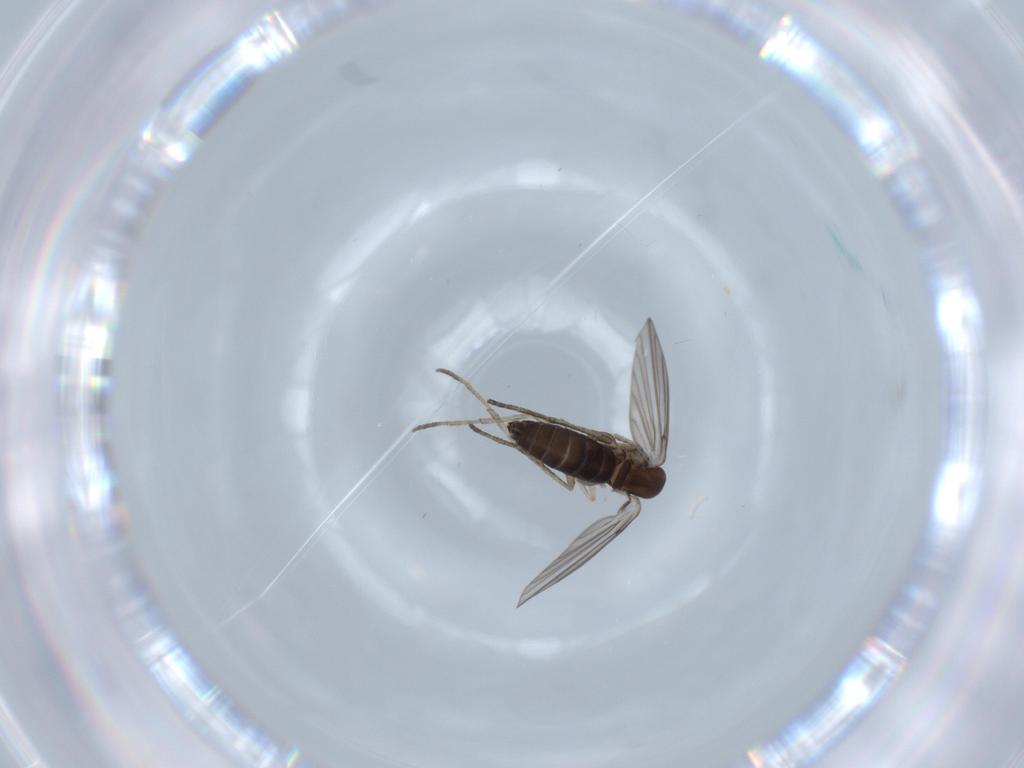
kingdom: Animalia
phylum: Arthropoda
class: Insecta
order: Diptera
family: Psychodidae
